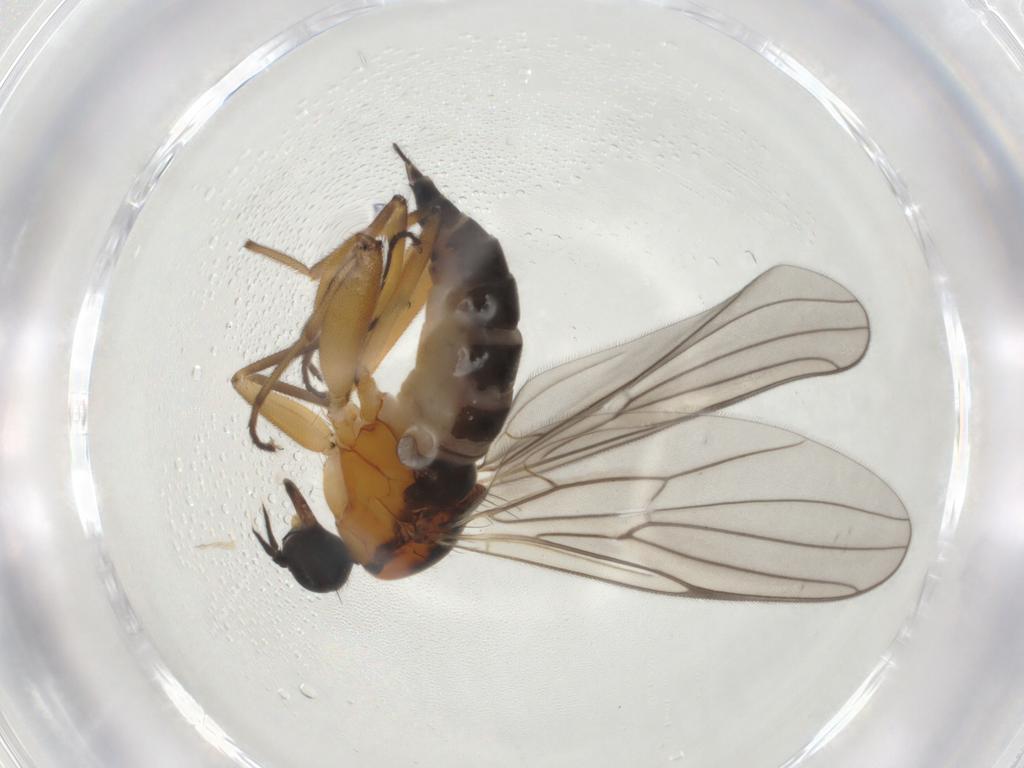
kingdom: Animalia
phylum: Arthropoda
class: Insecta
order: Diptera
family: Hybotidae
